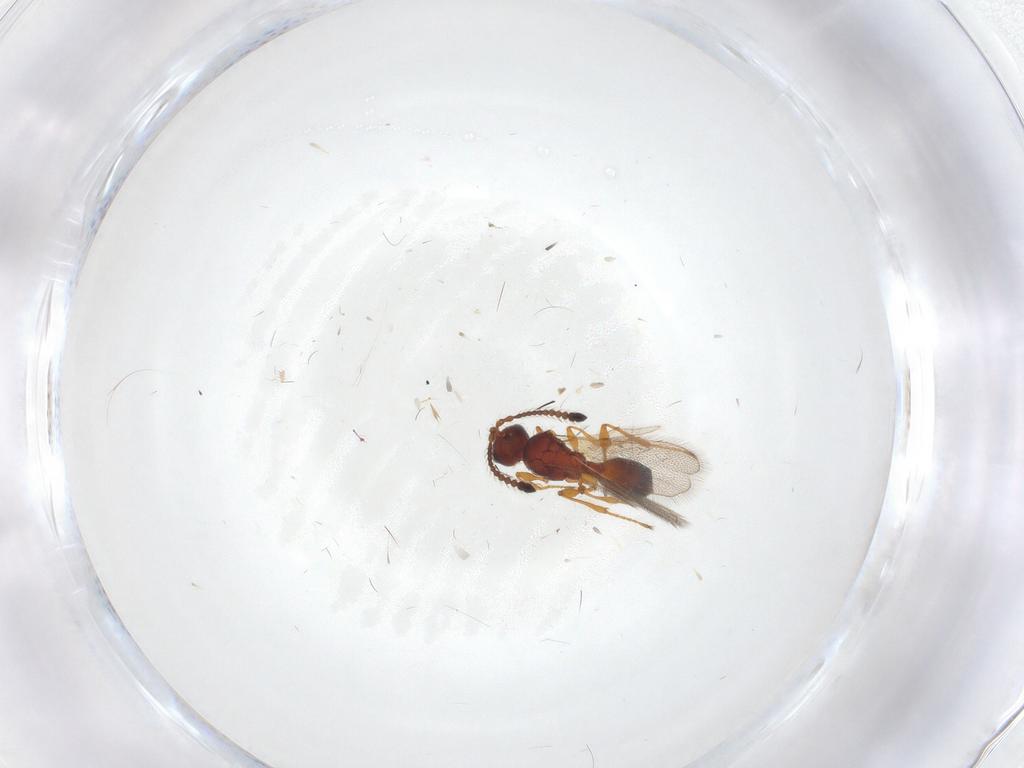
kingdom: Animalia
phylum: Arthropoda
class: Insecta
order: Hymenoptera
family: Diapriidae
